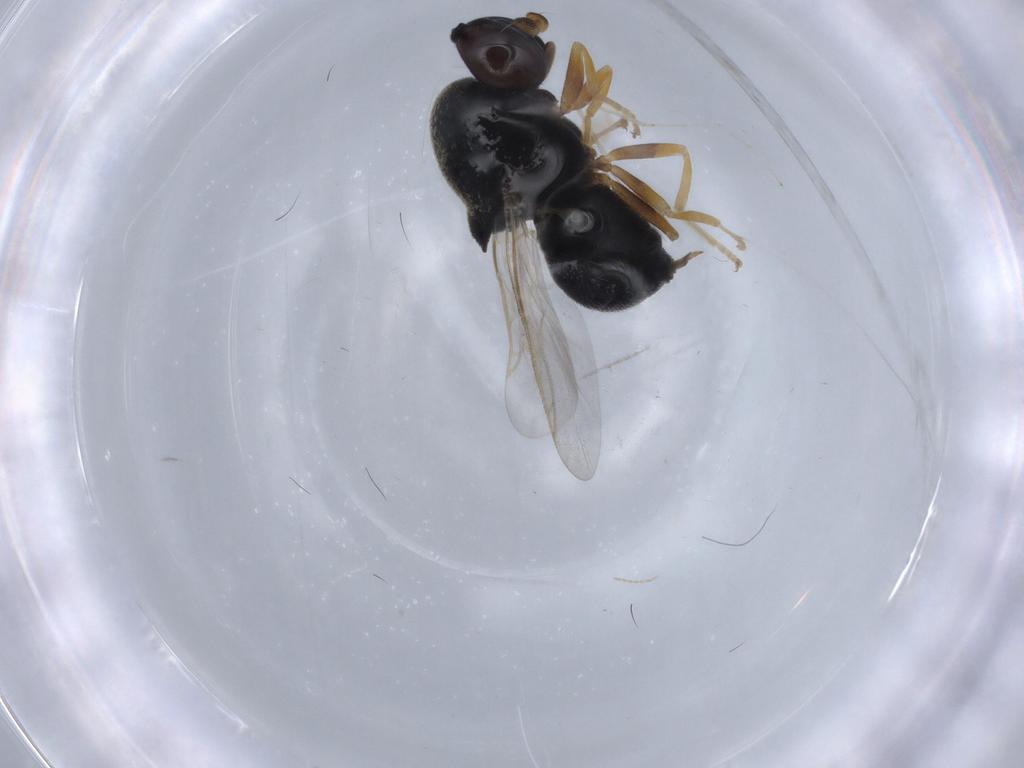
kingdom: Animalia
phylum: Arthropoda
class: Insecta
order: Diptera
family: Stratiomyidae
